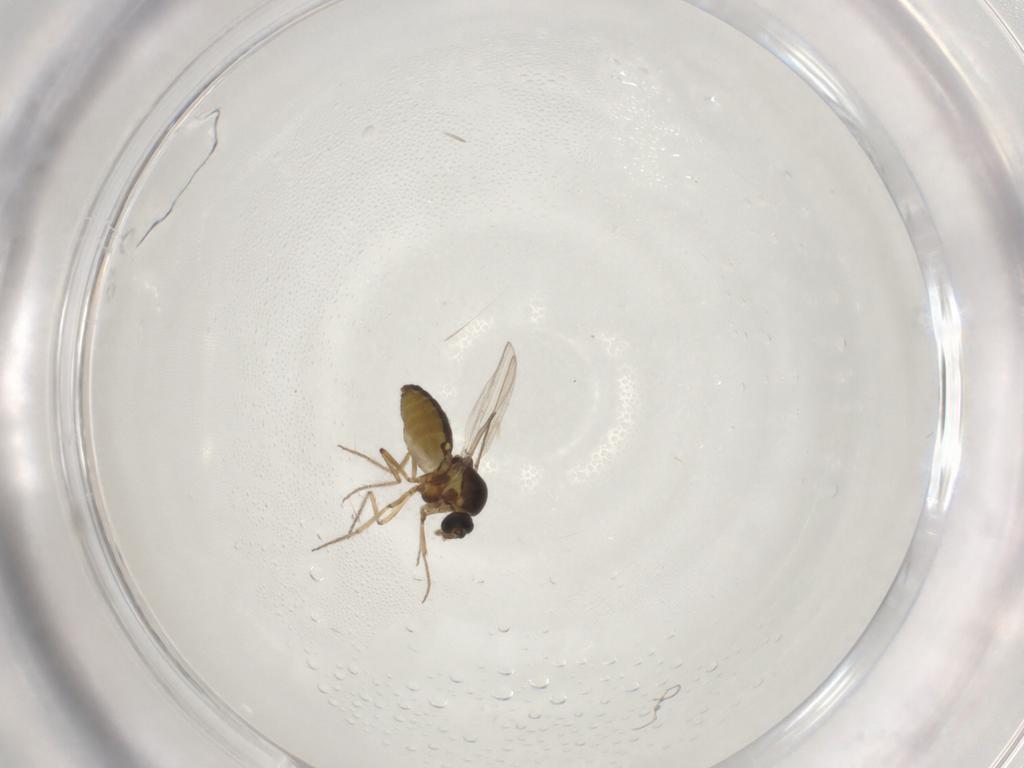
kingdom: Animalia
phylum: Arthropoda
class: Insecta
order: Diptera
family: Ceratopogonidae
